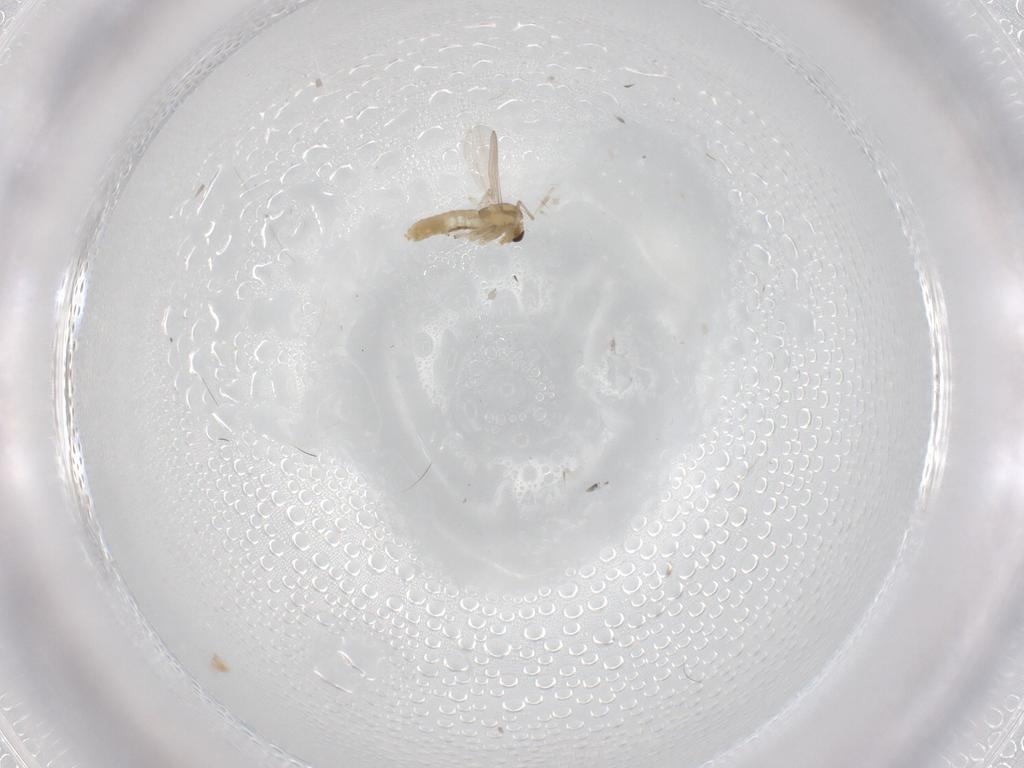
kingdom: Animalia
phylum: Arthropoda
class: Insecta
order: Diptera
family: Chironomidae
